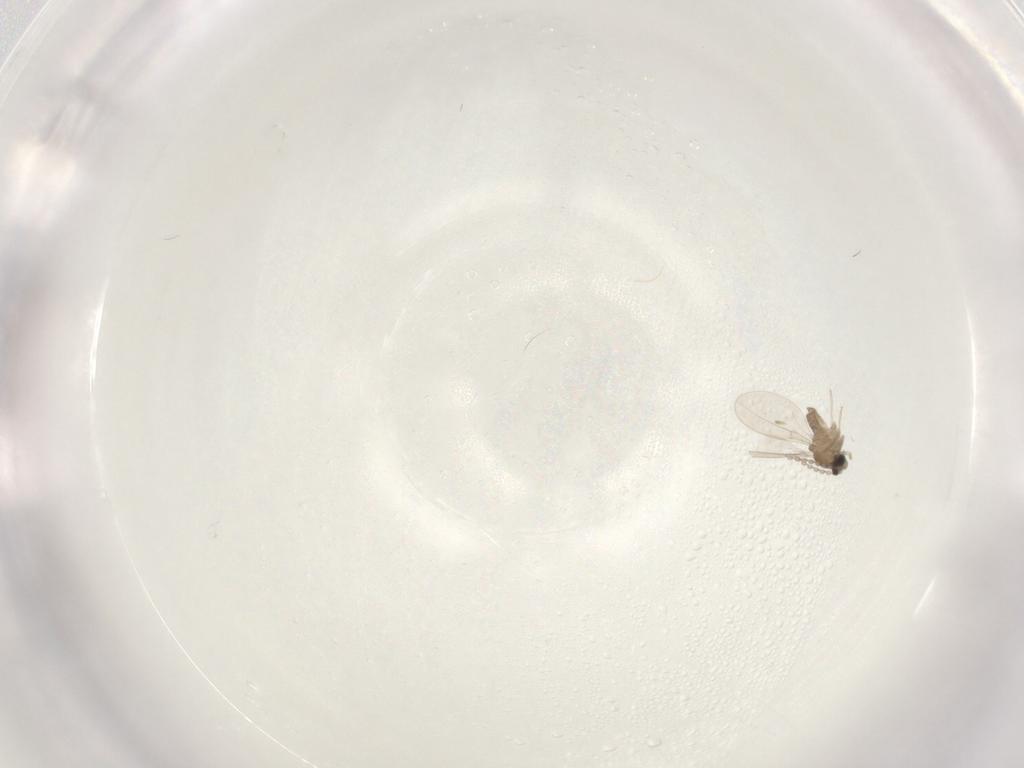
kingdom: Animalia
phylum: Arthropoda
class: Insecta
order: Diptera
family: Cecidomyiidae
